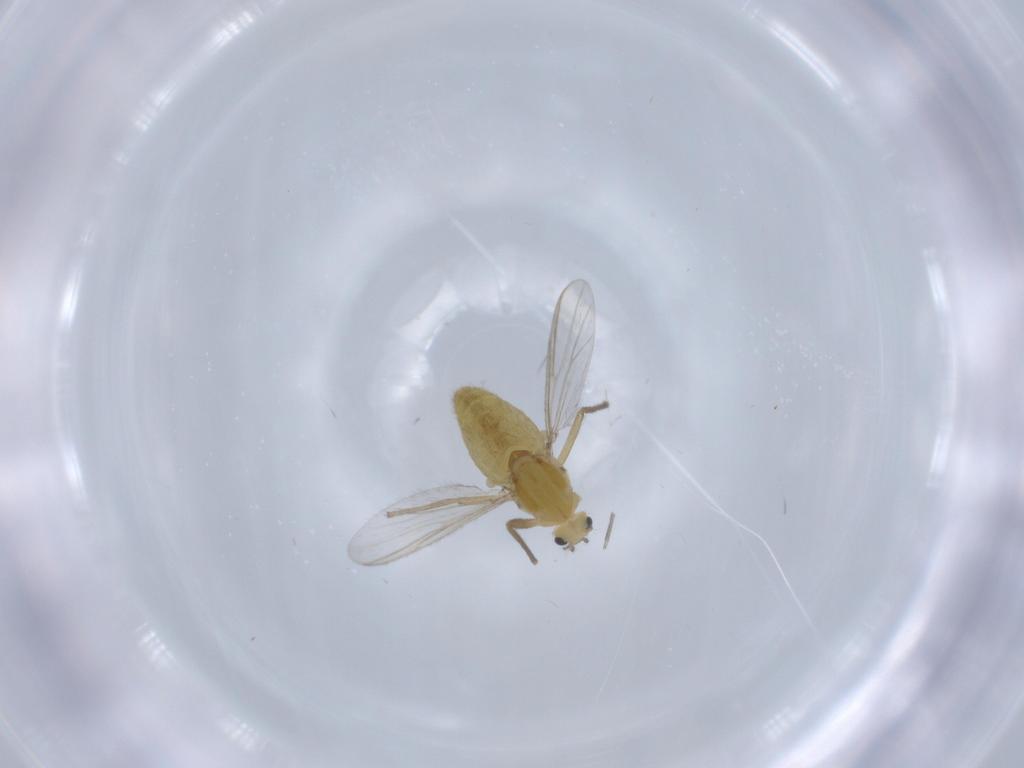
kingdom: Animalia
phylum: Arthropoda
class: Insecta
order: Diptera
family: Chironomidae
